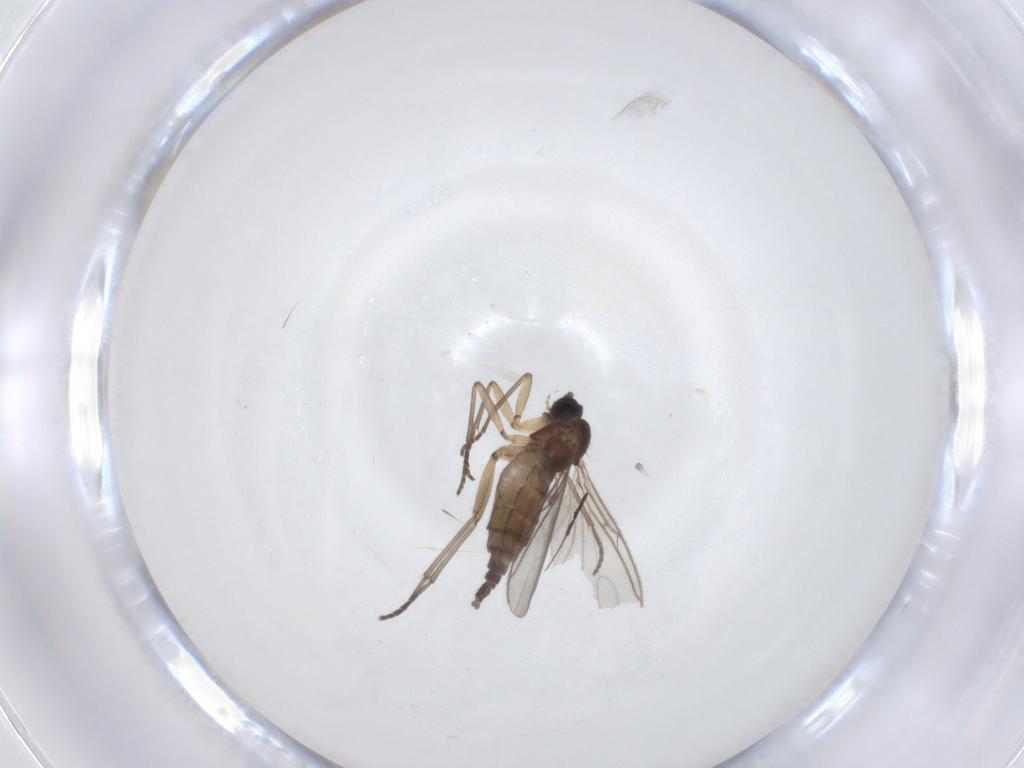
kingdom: Animalia
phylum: Arthropoda
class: Insecta
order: Diptera
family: Sciaridae
